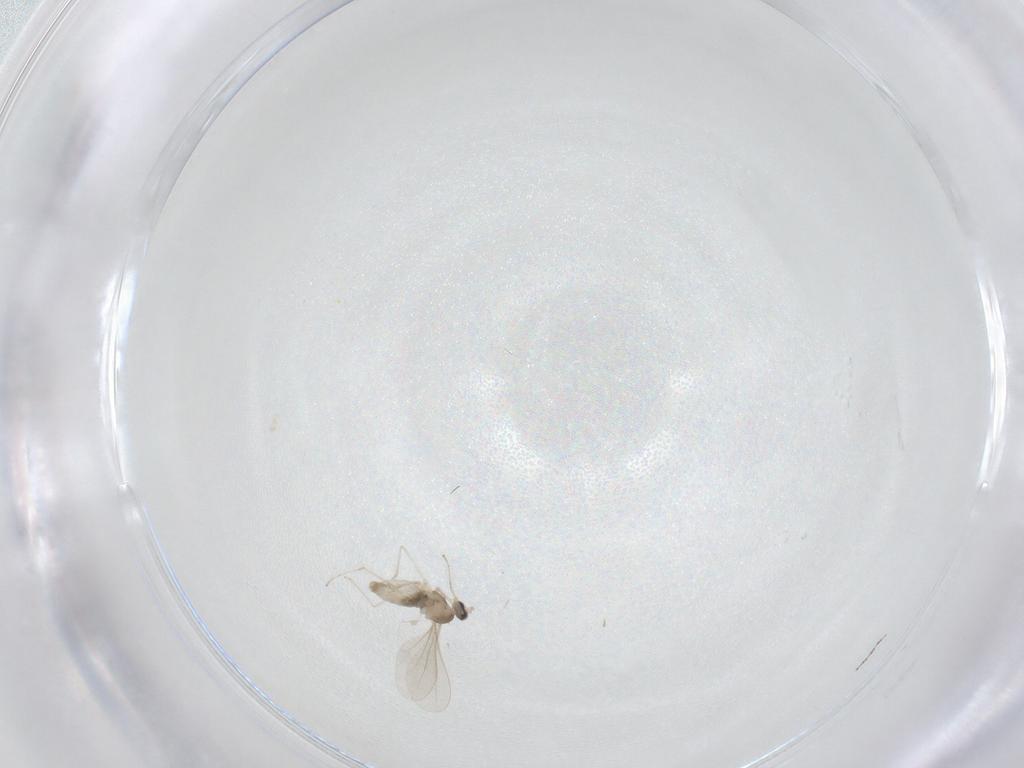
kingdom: Animalia
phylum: Arthropoda
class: Insecta
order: Diptera
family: Cecidomyiidae
